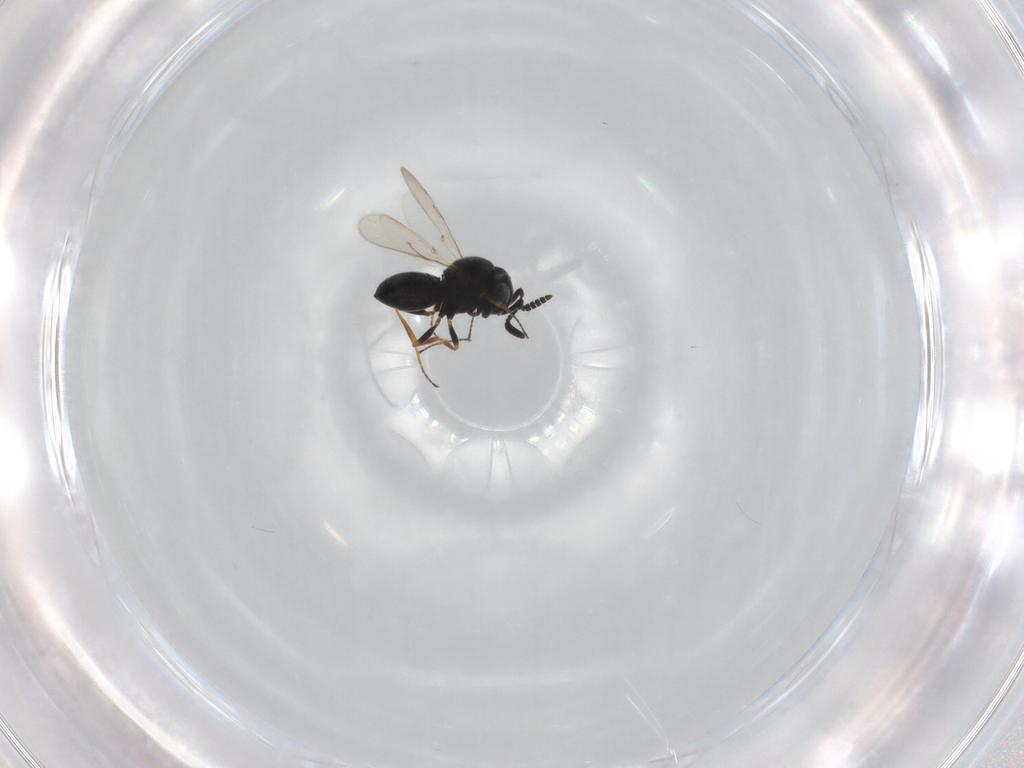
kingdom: Animalia
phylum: Arthropoda
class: Insecta
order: Hymenoptera
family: Scelionidae
